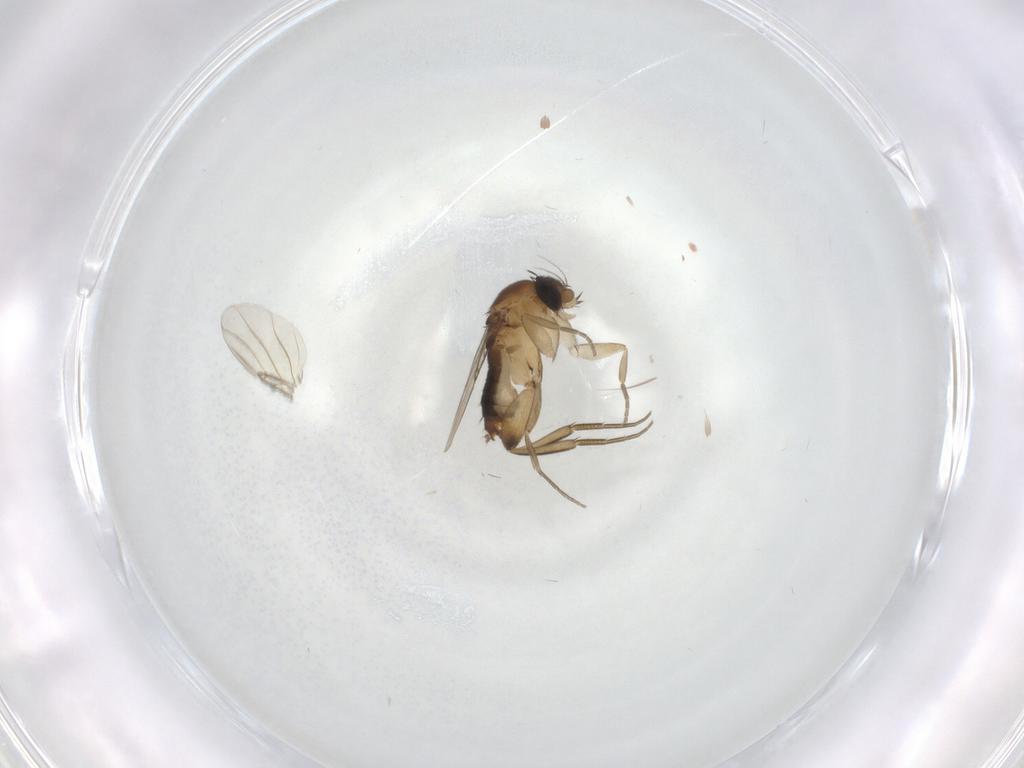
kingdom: Animalia
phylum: Arthropoda
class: Insecta
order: Diptera
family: Phoridae
